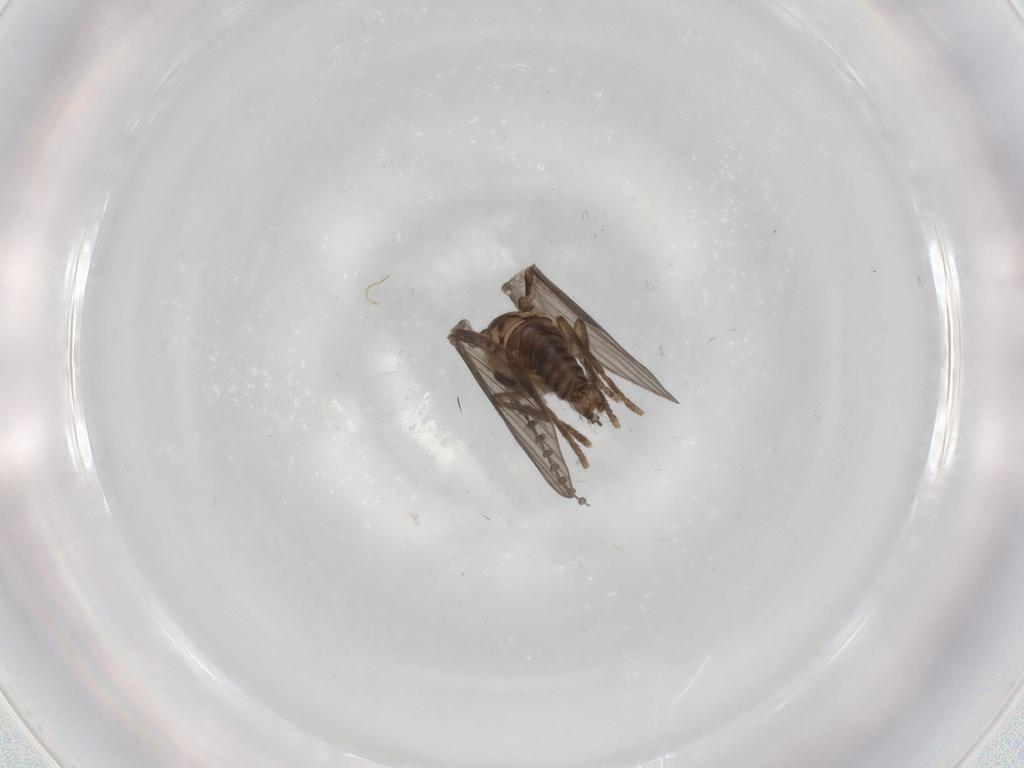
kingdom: Animalia
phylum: Arthropoda
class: Insecta
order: Diptera
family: Psychodidae
